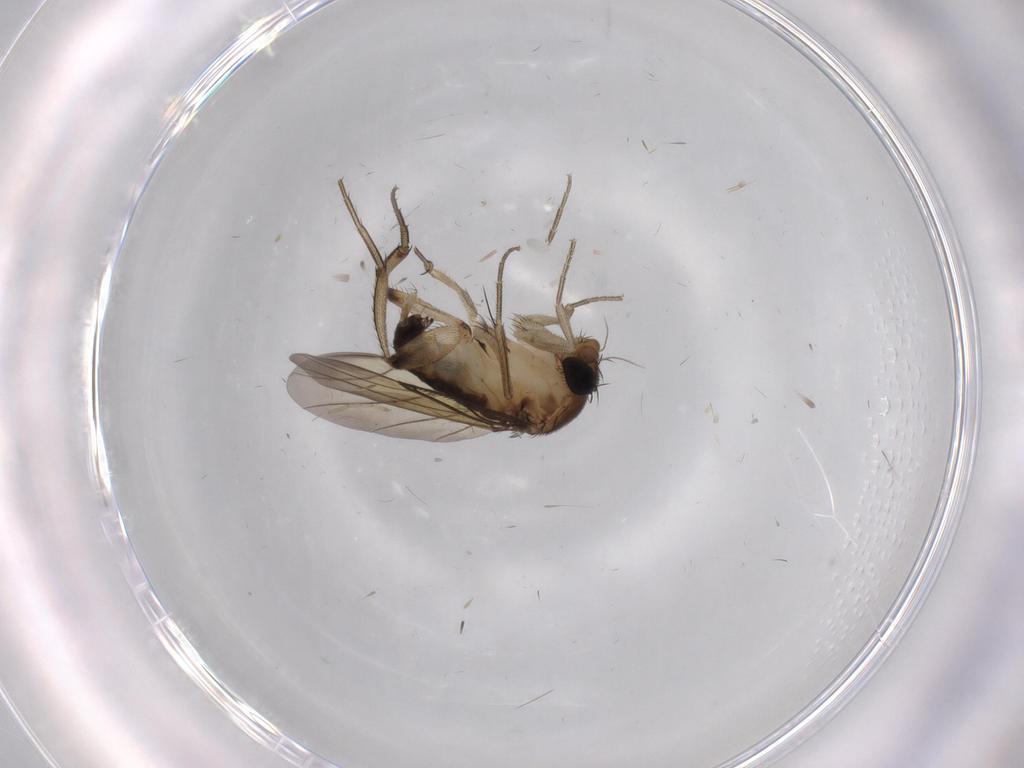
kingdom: Animalia
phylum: Arthropoda
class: Insecta
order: Diptera
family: Cecidomyiidae
